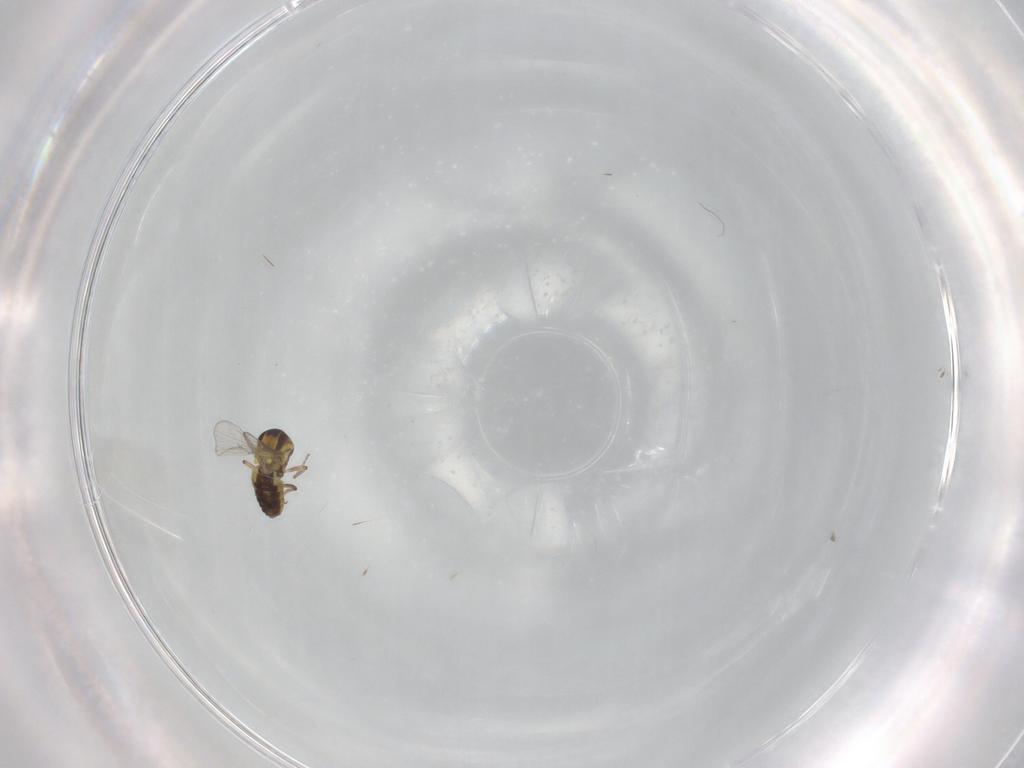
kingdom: Animalia
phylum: Arthropoda
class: Insecta
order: Diptera
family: Ceratopogonidae
